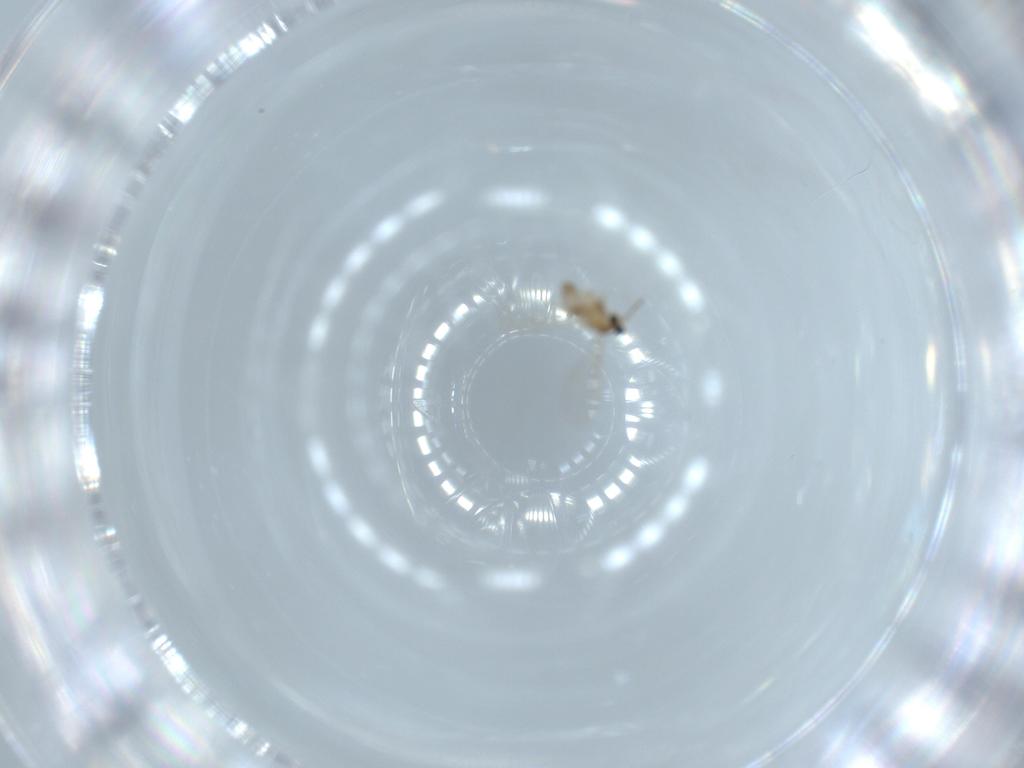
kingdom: Animalia
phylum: Arthropoda
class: Insecta
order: Diptera
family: Cecidomyiidae
